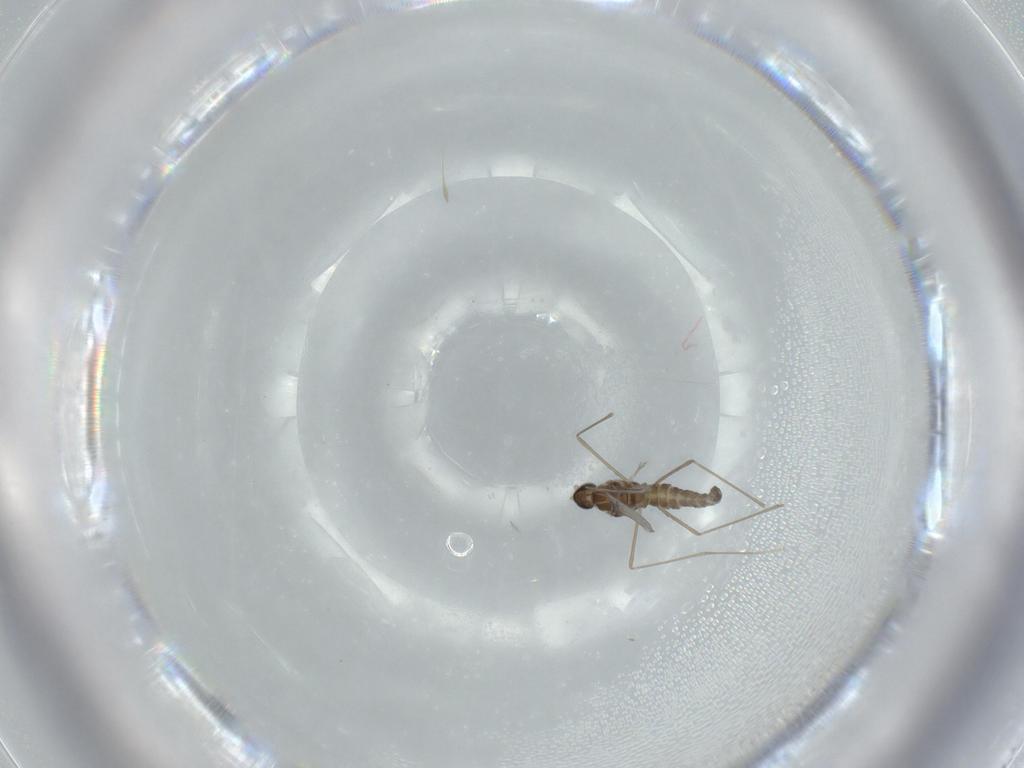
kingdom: Animalia
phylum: Arthropoda
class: Insecta
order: Diptera
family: Cecidomyiidae
